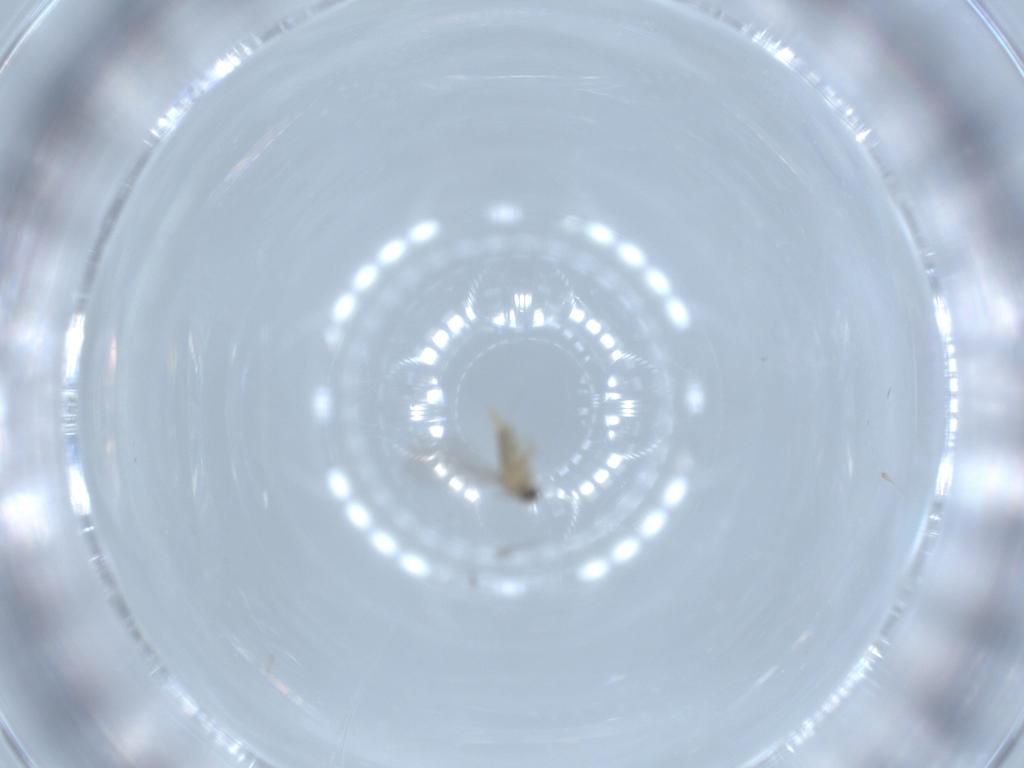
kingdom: Animalia
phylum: Arthropoda
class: Insecta
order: Diptera
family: Cecidomyiidae
